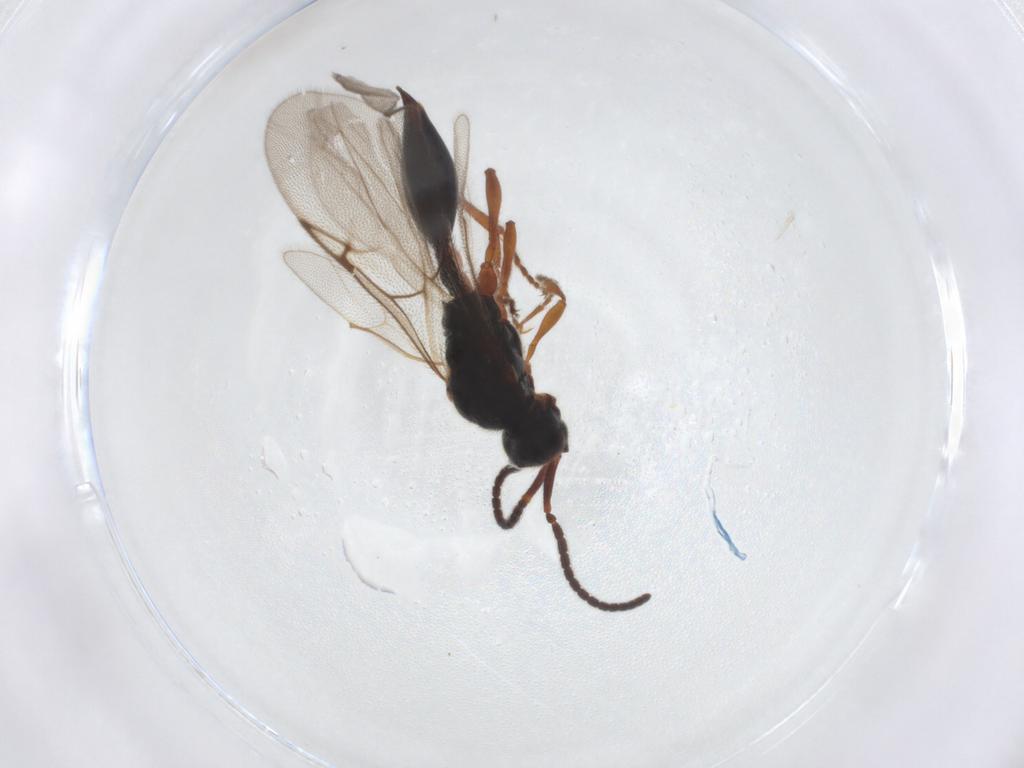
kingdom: Animalia
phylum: Arthropoda
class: Insecta
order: Hymenoptera
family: Diapriidae
